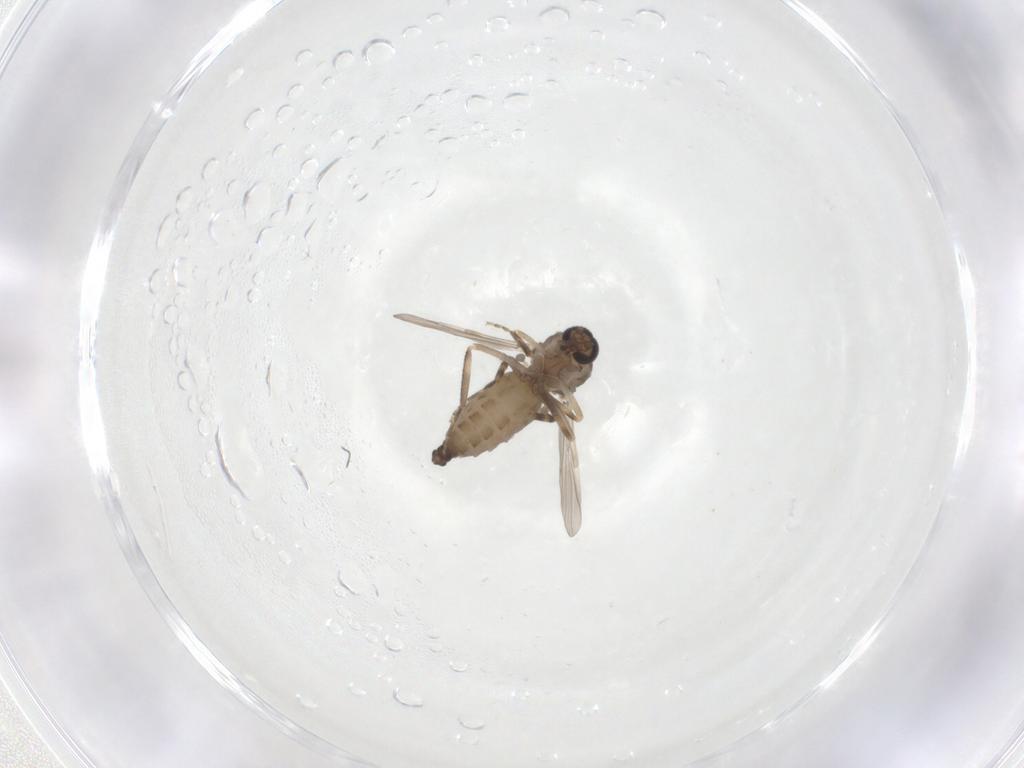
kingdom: Animalia
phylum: Arthropoda
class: Insecta
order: Diptera
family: Ceratopogonidae
